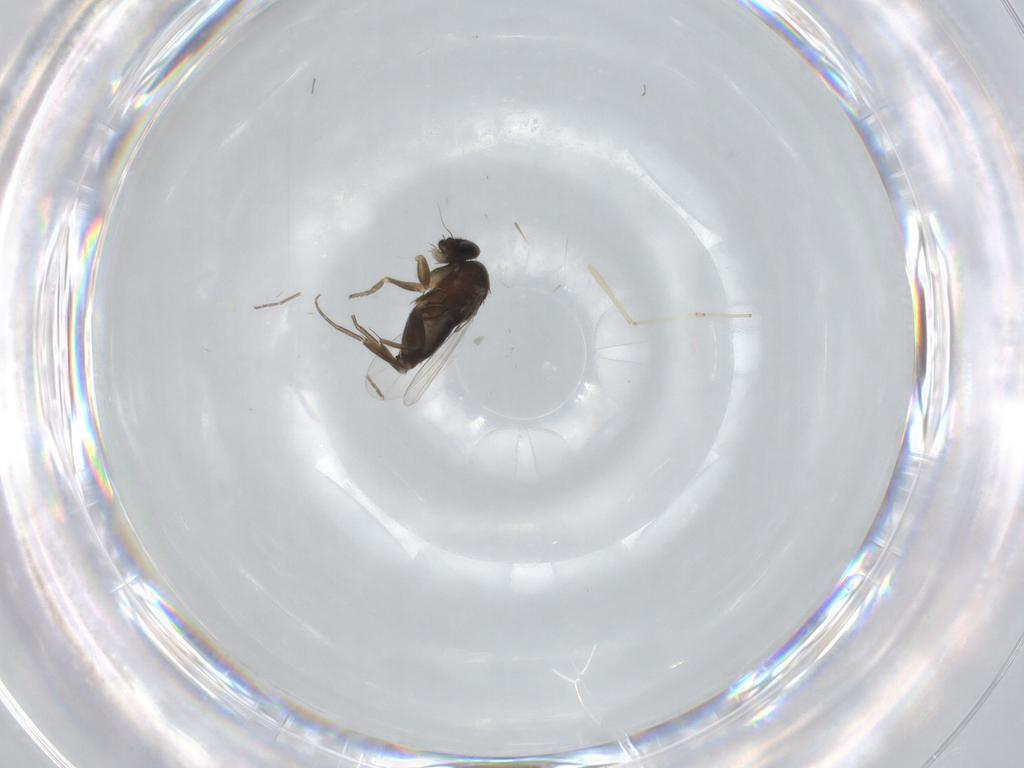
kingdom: Animalia
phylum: Arthropoda
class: Insecta
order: Diptera
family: Phoridae
